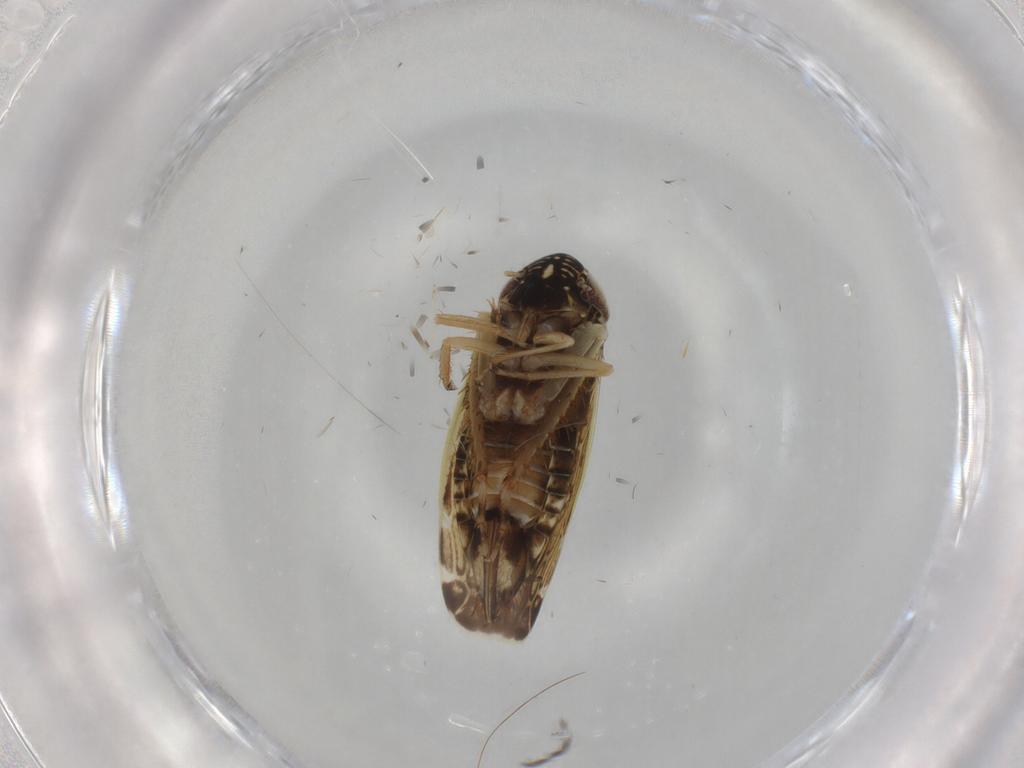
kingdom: Animalia
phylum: Arthropoda
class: Insecta
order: Hemiptera
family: Cicadellidae
